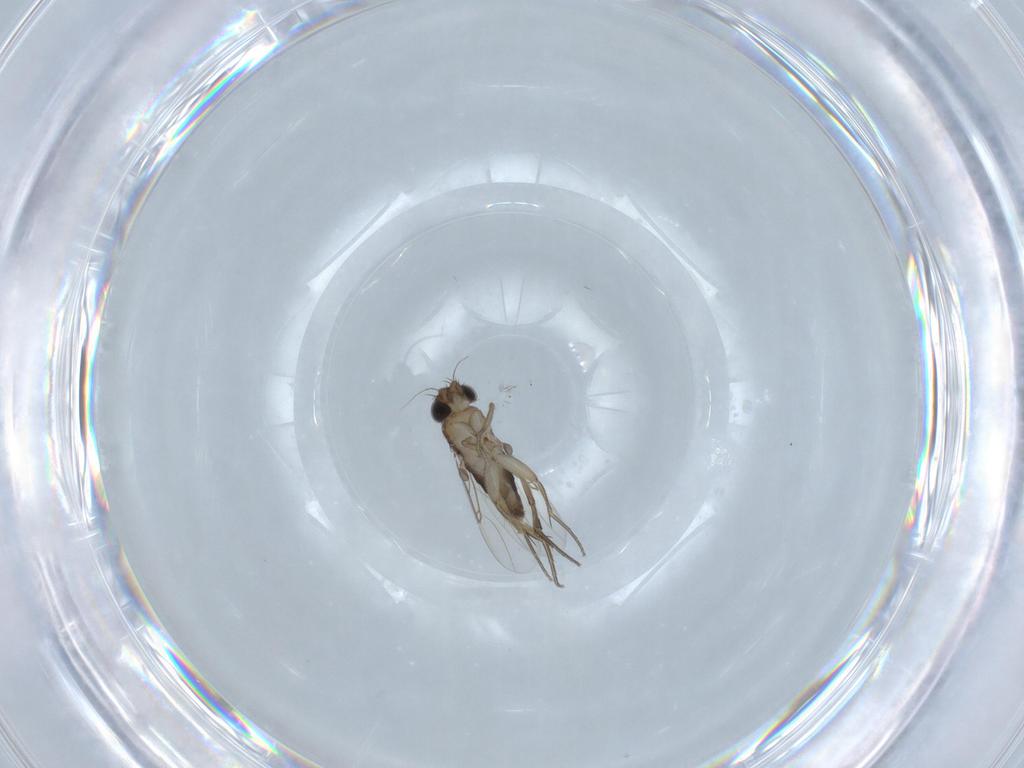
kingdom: Animalia
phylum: Arthropoda
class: Insecta
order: Diptera
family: Phoridae
